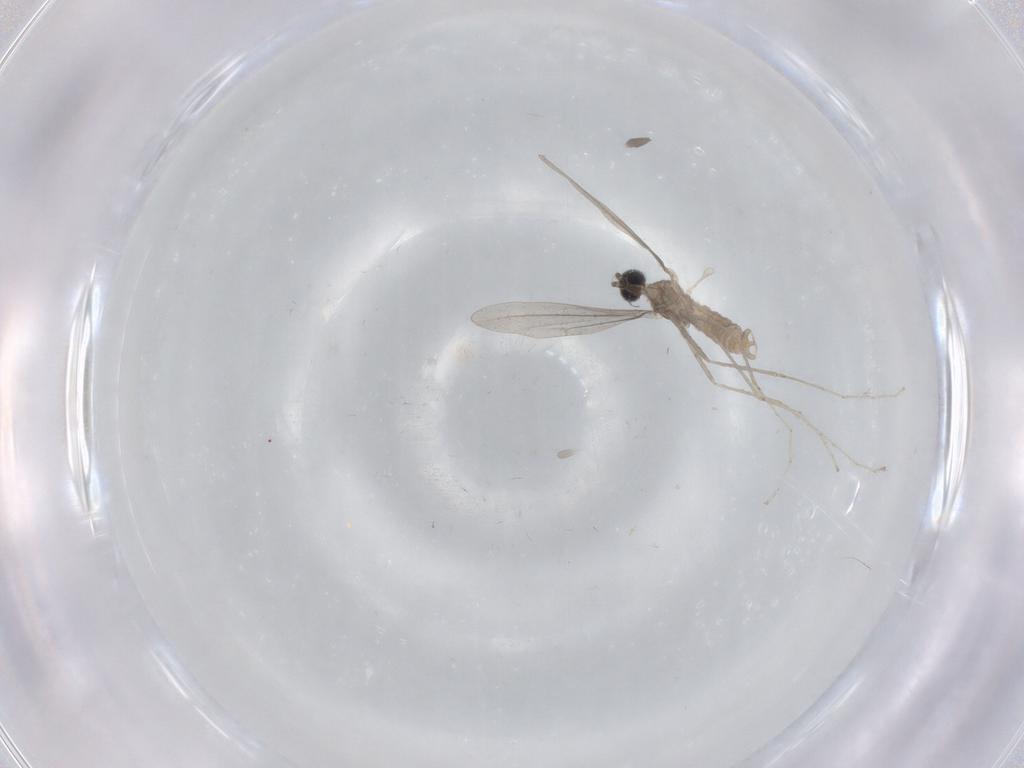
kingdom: Animalia
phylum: Arthropoda
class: Insecta
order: Diptera
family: Cecidomyiidae
